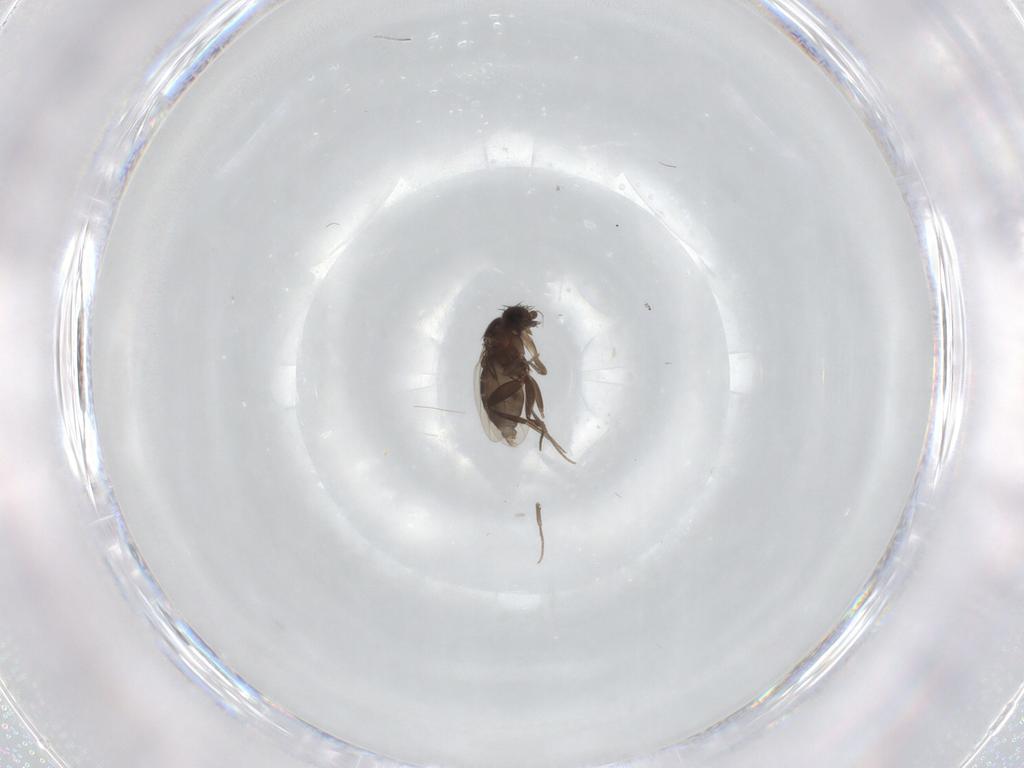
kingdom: Animalia
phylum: Arthropoda
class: Insecta
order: Diptera
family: Phoridae
